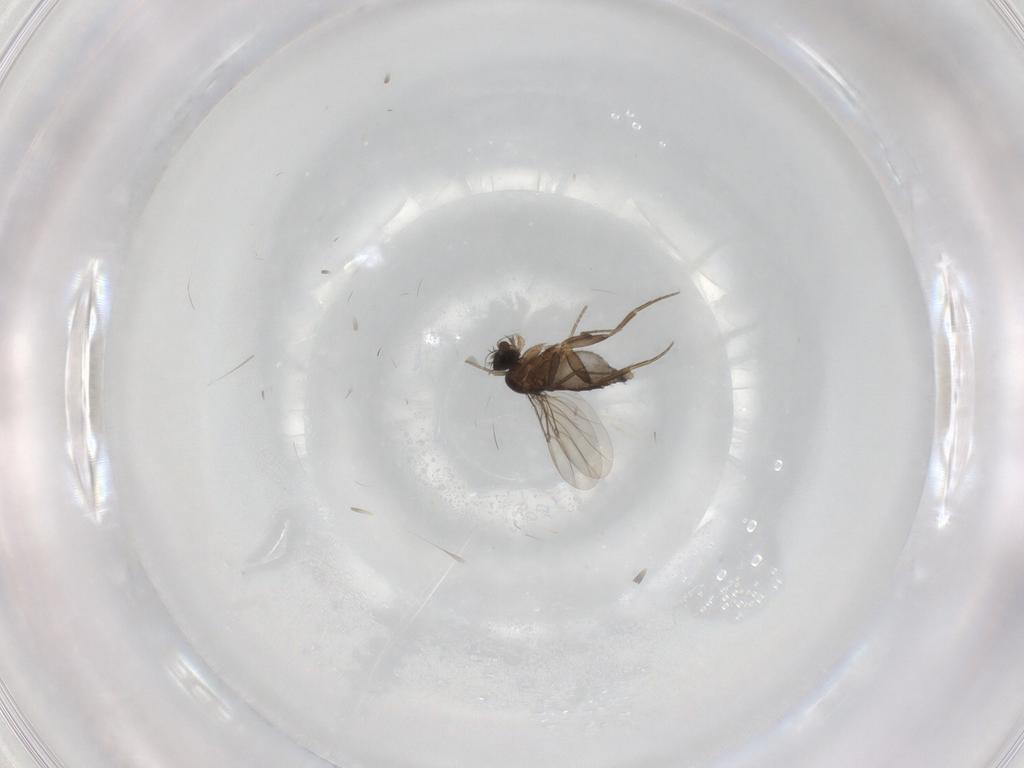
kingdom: Animalia
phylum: Arthropoda
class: Insecta
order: Diptera
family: Phoridae
